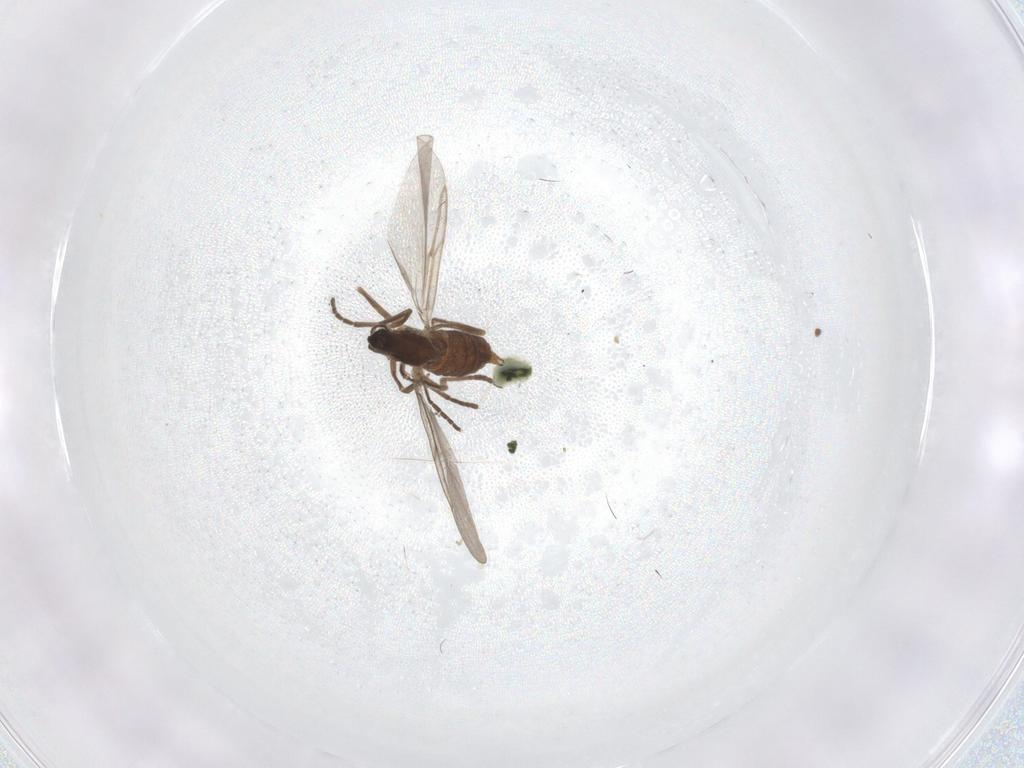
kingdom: Animalia
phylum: Arthropoda
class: Insecta
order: Diptera
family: Cecidomyiidae
